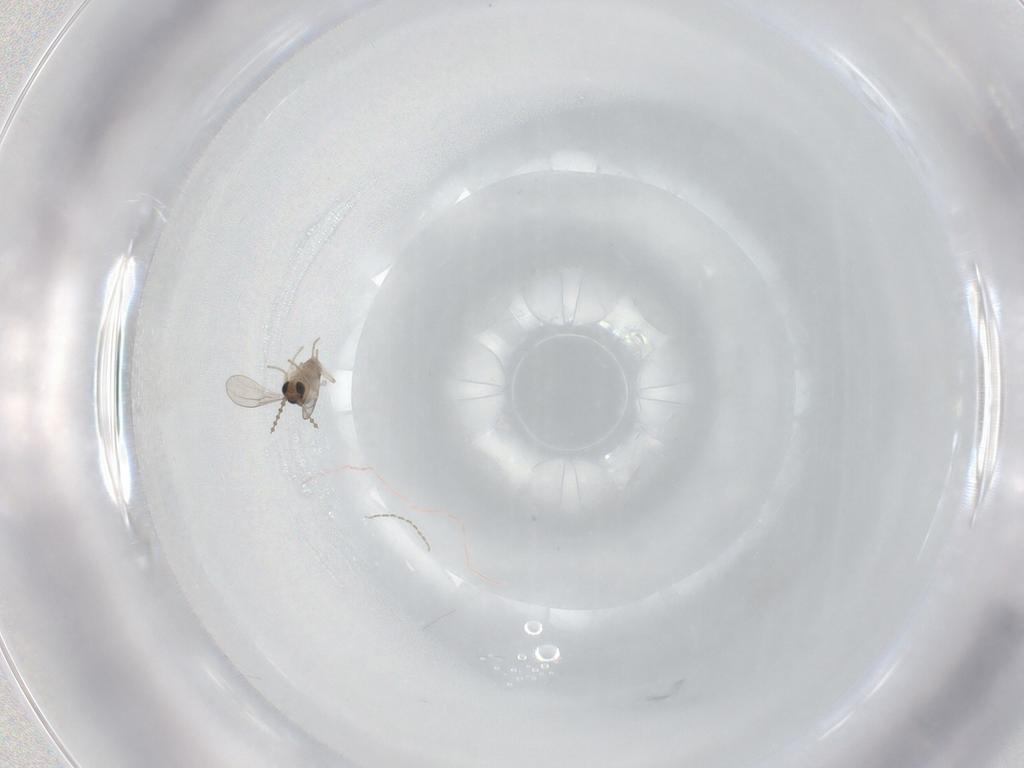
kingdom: Animalia
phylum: Arthropoda
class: Insecta
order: Diptera
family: Cecidomyiidae
